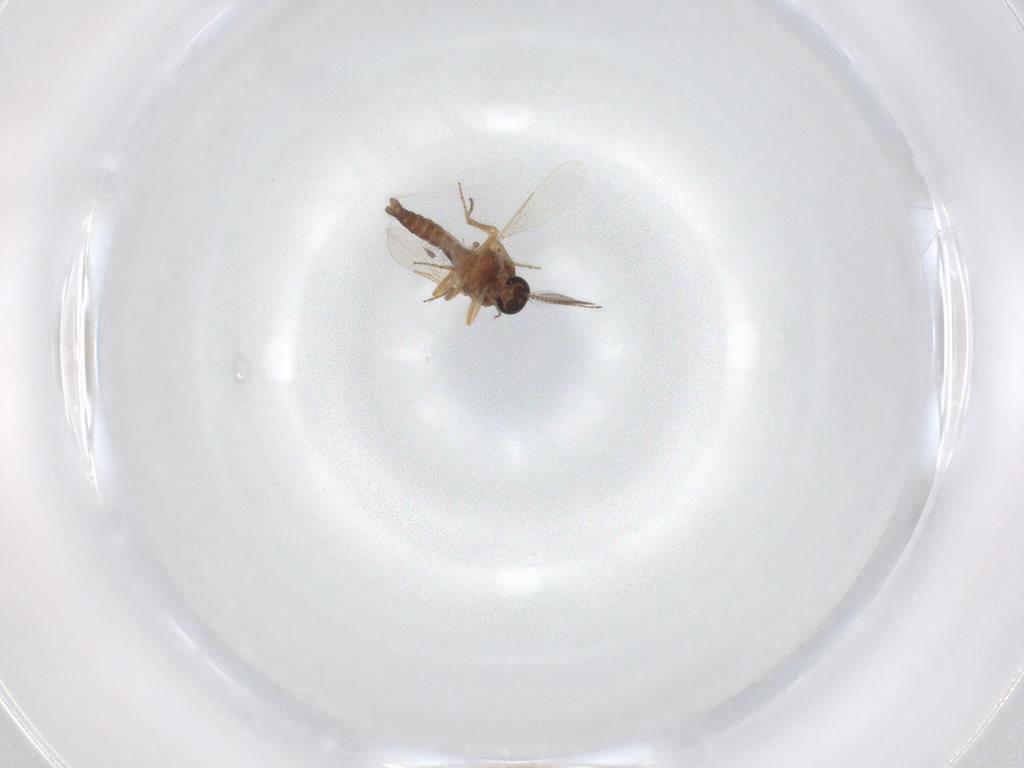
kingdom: Animalia
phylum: Arthropoda
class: Insecta
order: Diptera
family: Ceratopogonidae
